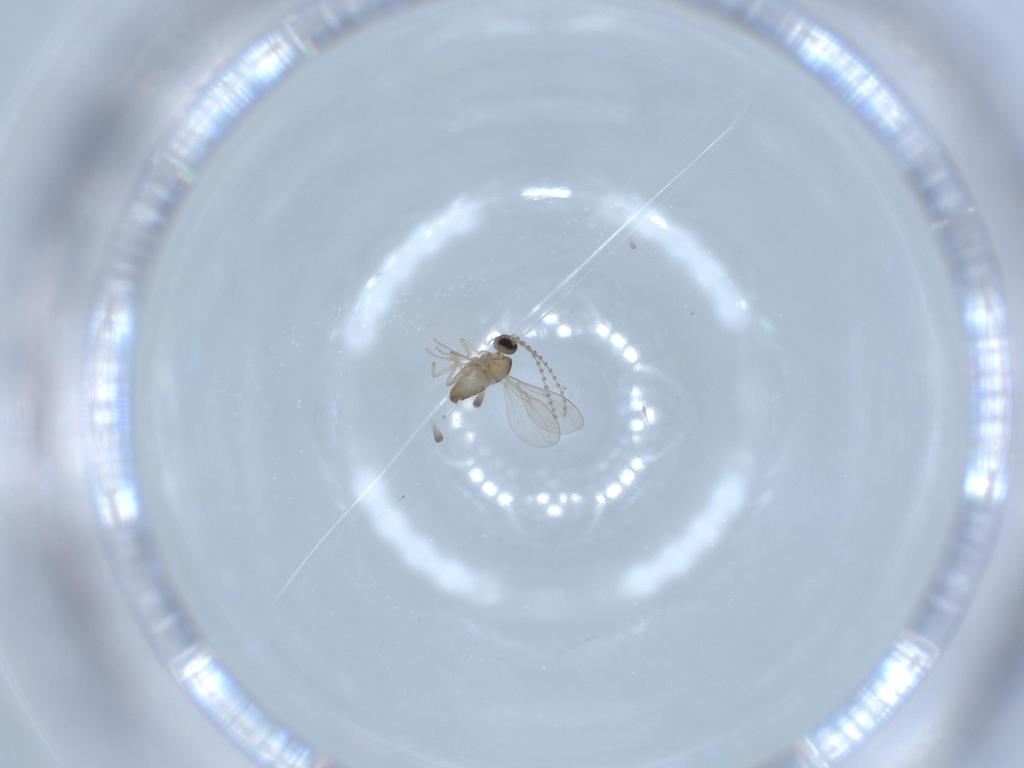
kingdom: Animalia
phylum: Arthropoda
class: Insecta
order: Diptera
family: Cecidomyiidae
